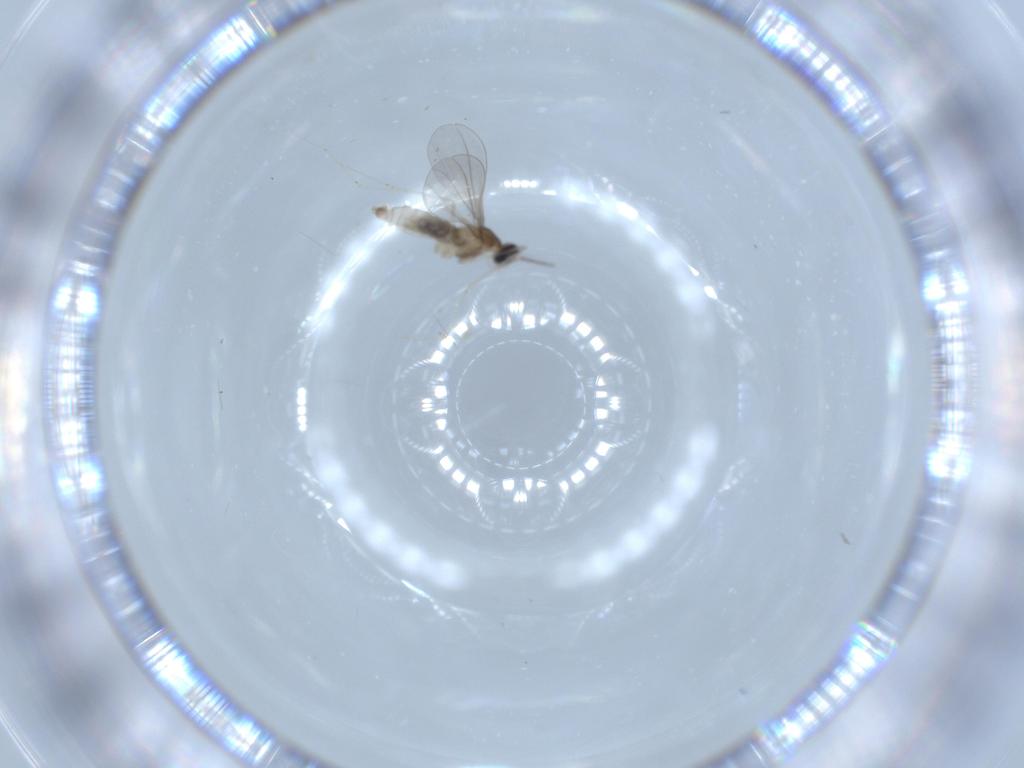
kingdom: Animalia
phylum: Arthropoda
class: Insecta
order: Diptera
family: Cecidomyiidae
